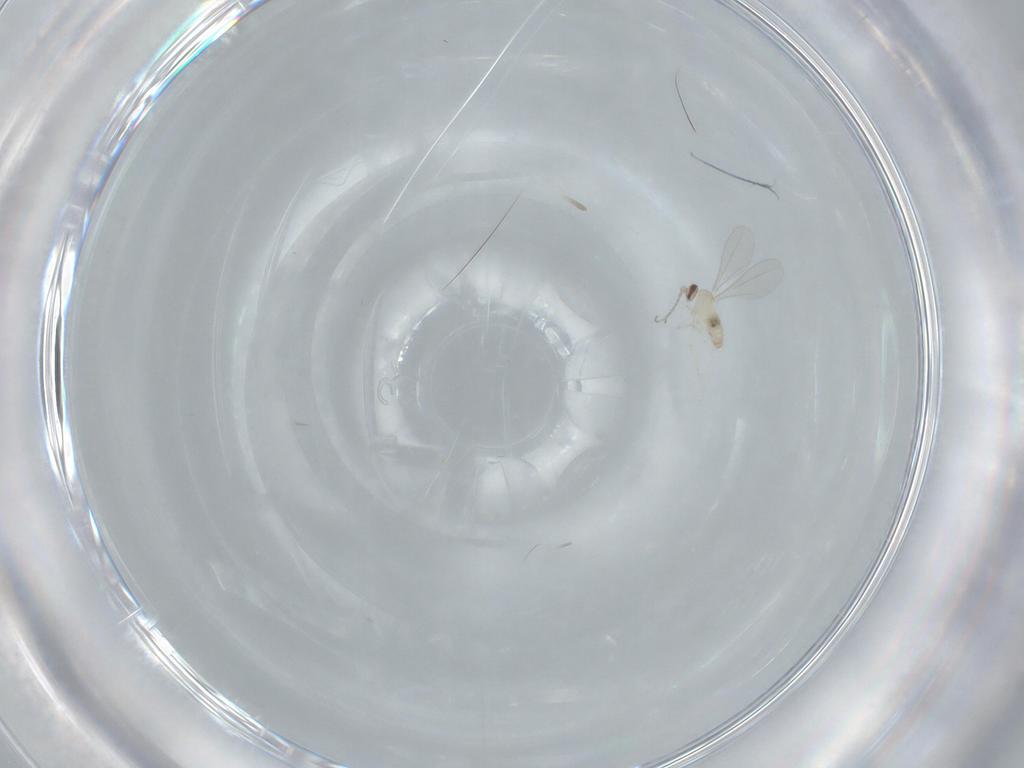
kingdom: Animalia
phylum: Arthropoda
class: Insecta
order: Diptera
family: Cecidomyiidae
